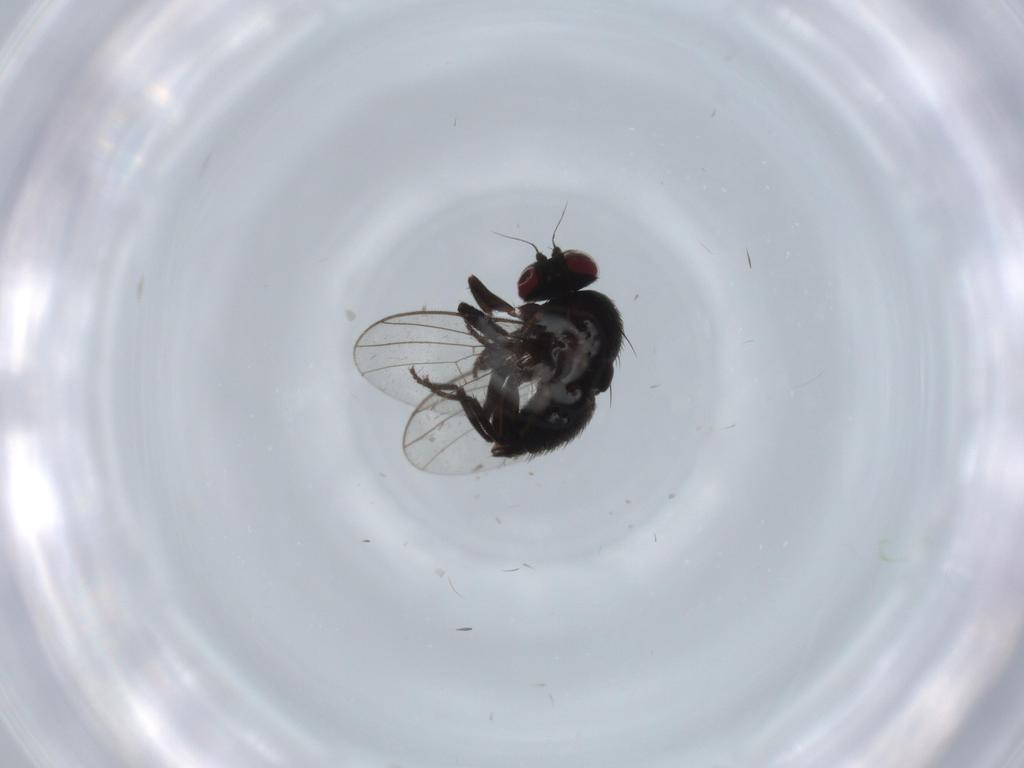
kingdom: Animalia
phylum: Arthropoda
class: Insecta
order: Diptera
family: Agromyzidae
